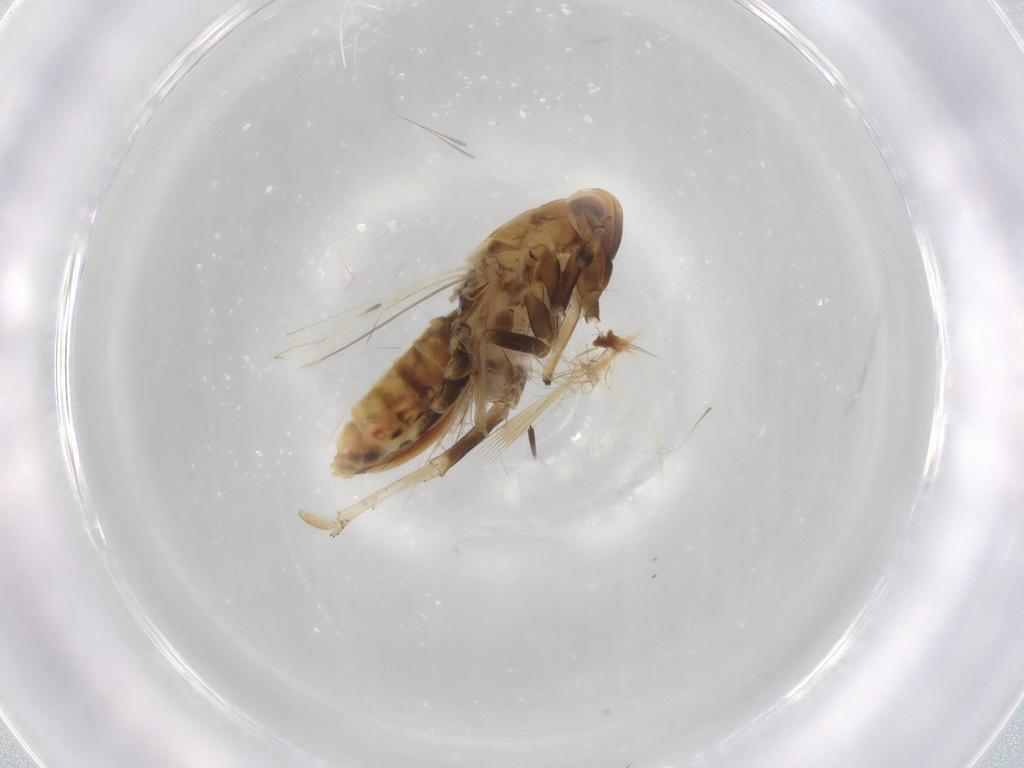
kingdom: Animalia
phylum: Arthropoda
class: Insecta
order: Hemiptera
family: Delphacidae
